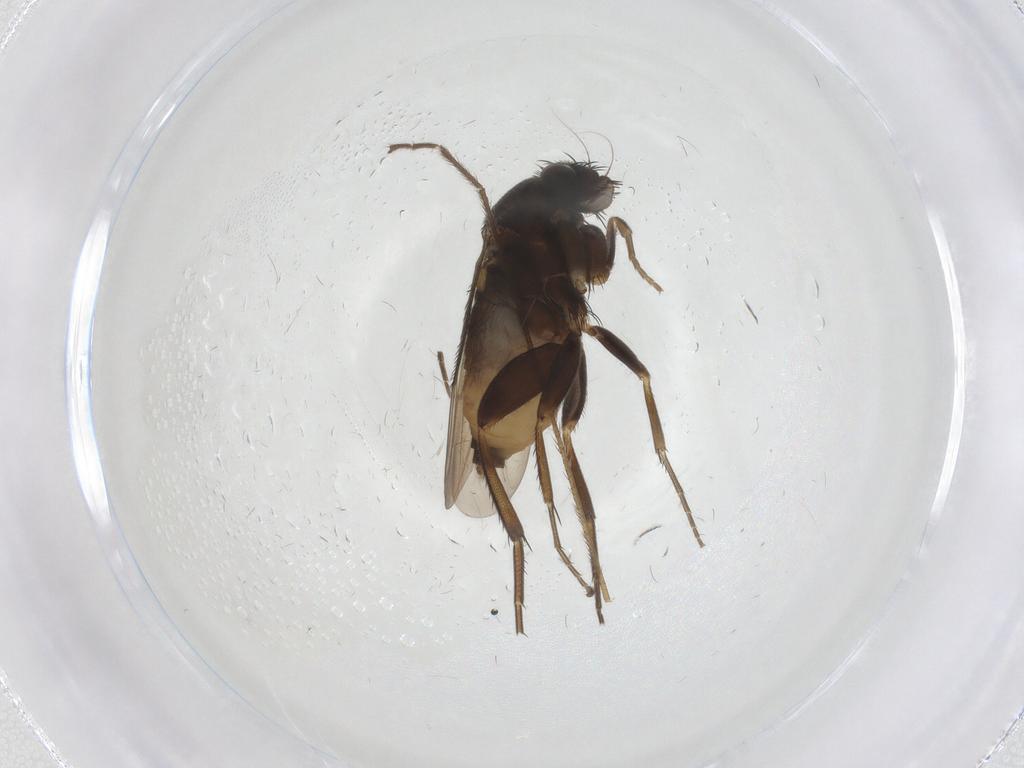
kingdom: Animalia
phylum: Arthropoda
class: Insecta
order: Diptera
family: Phoridae
